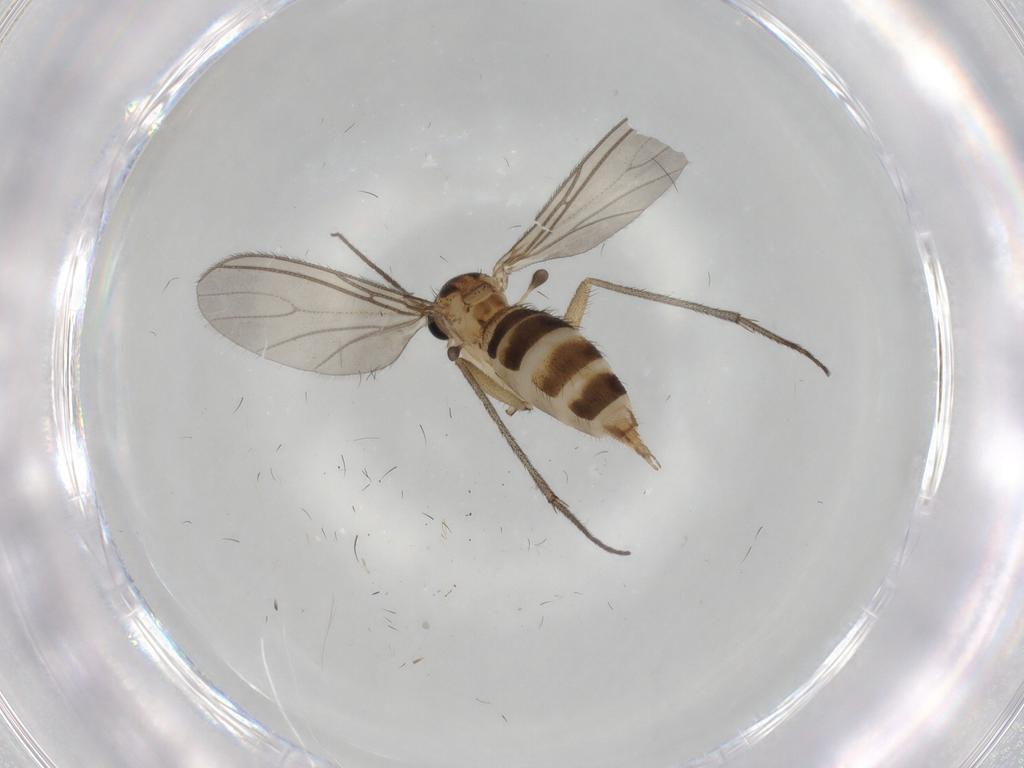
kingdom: Animalia
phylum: Arthropoda
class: Insecta
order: Diptera
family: Sciaridae
